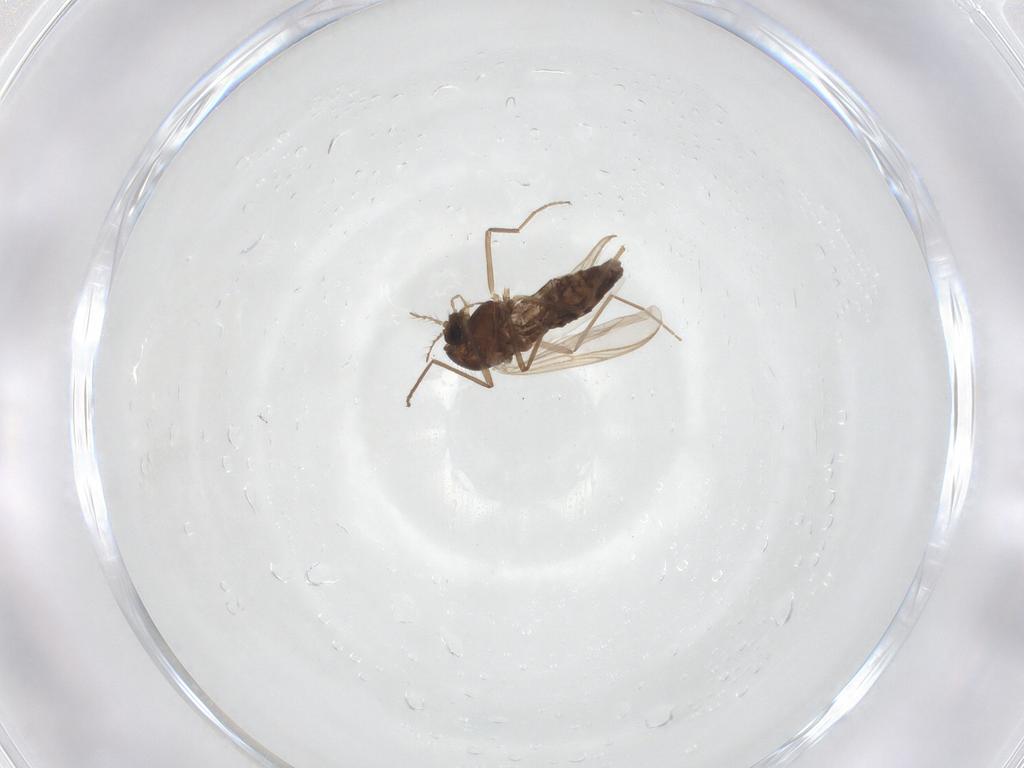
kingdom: Animalia
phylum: Arthropoda
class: Insecta
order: Diptera
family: Chironomidae
